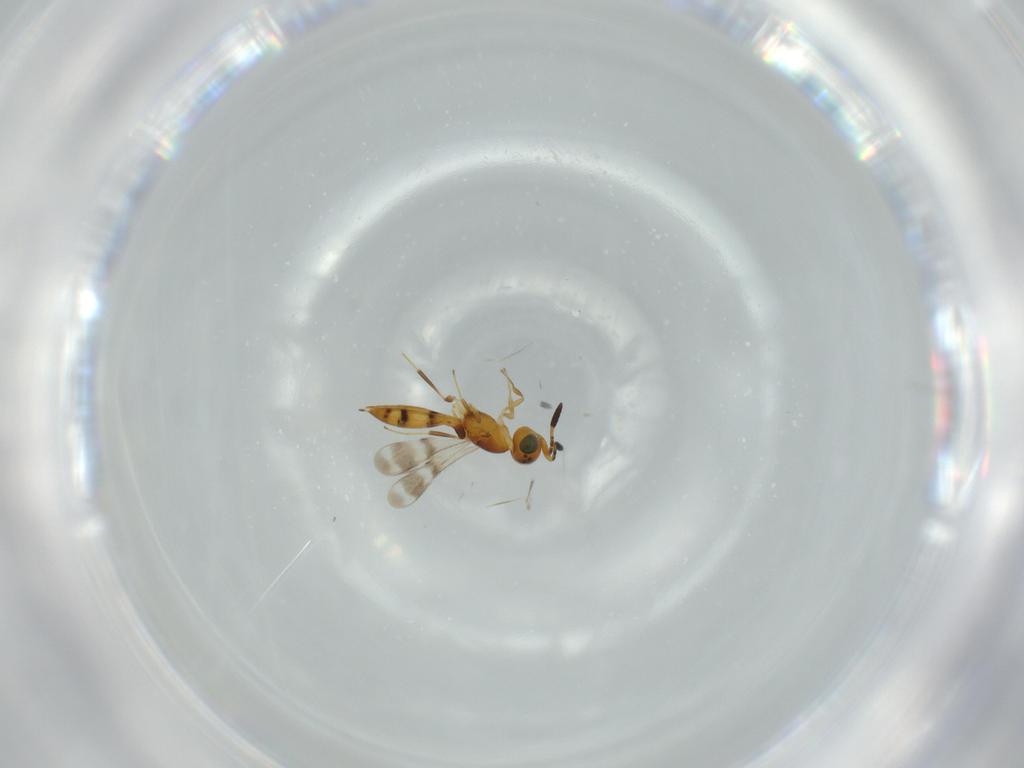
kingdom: Animalia
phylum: Arthropoda
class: Insecta
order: Hymenoptera
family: Scelionidae
